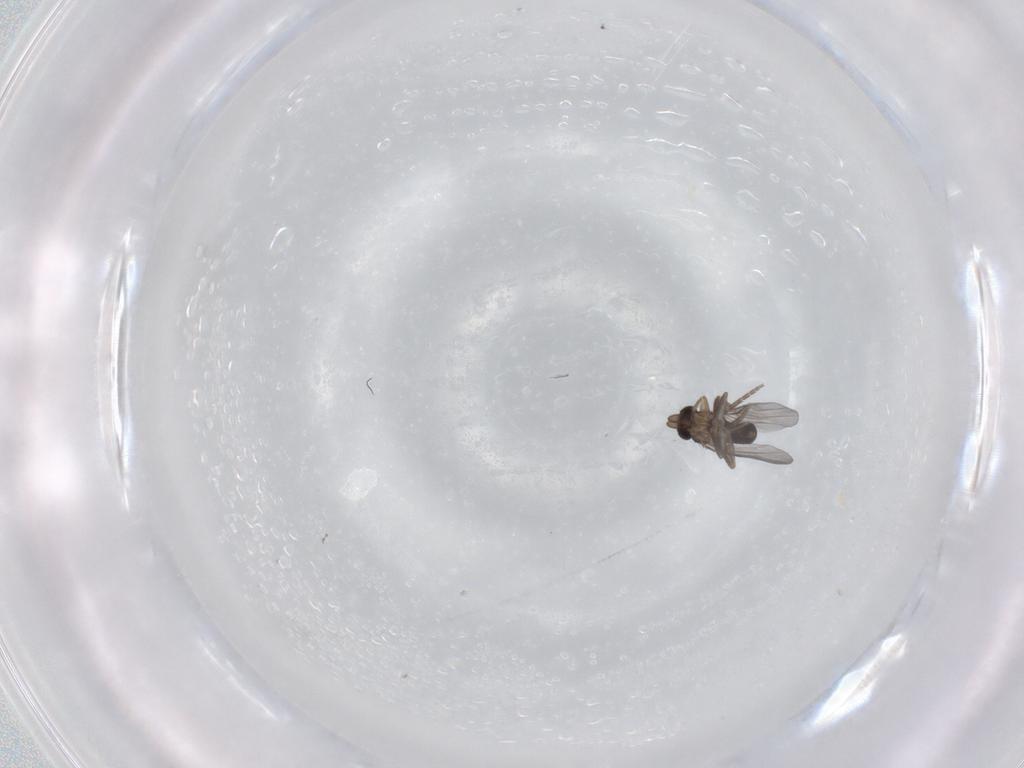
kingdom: Animalia
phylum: Arthropoda
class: Insecta
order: Diptera
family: Cecidomyiidae
